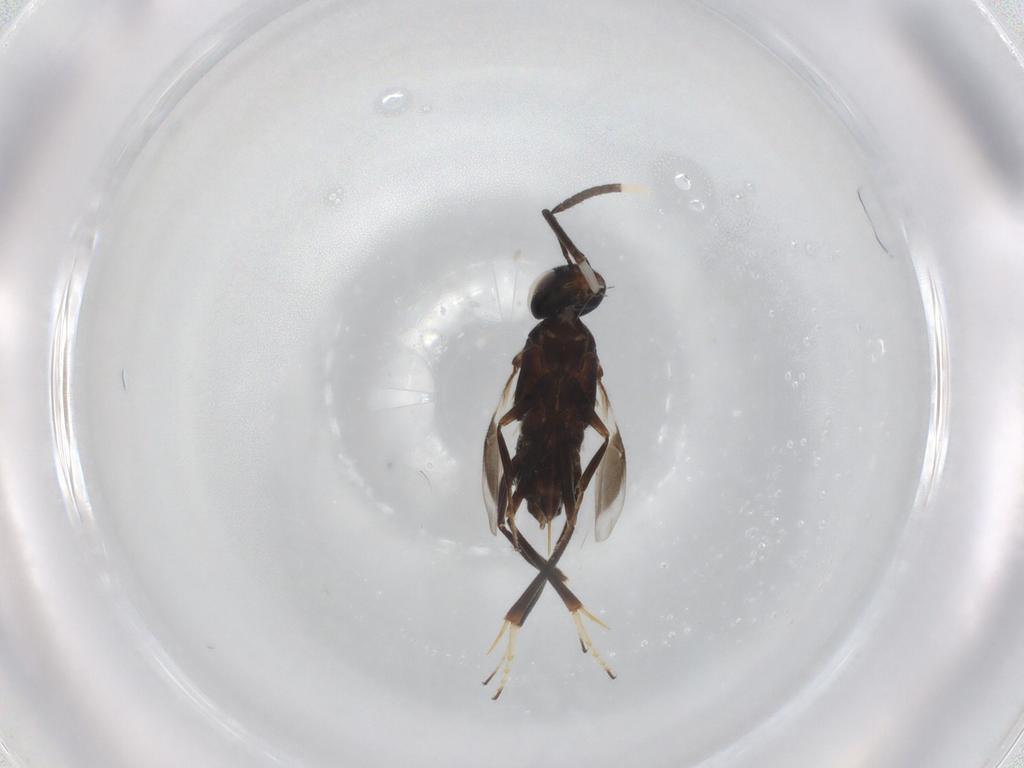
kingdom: Animalia
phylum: Arthropoda
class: Insecta
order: Hymenoptera
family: Encyrtidae
